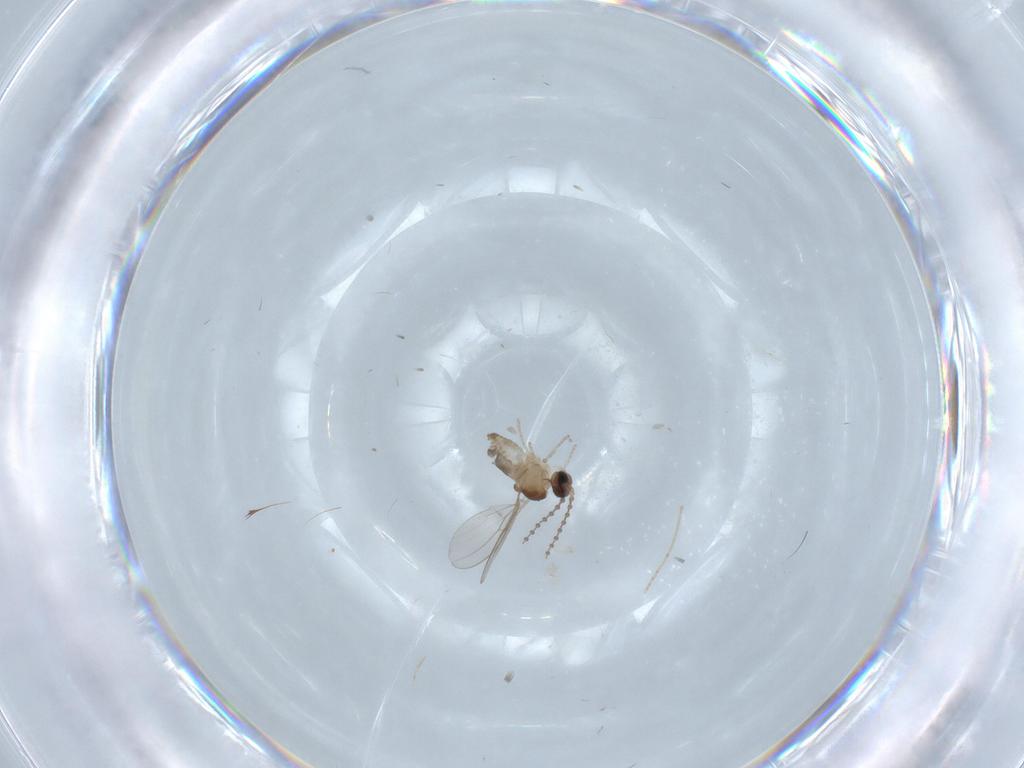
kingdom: Animalia
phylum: Arthropoda
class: Insecta
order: Diptera
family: Cecidomyiidae
